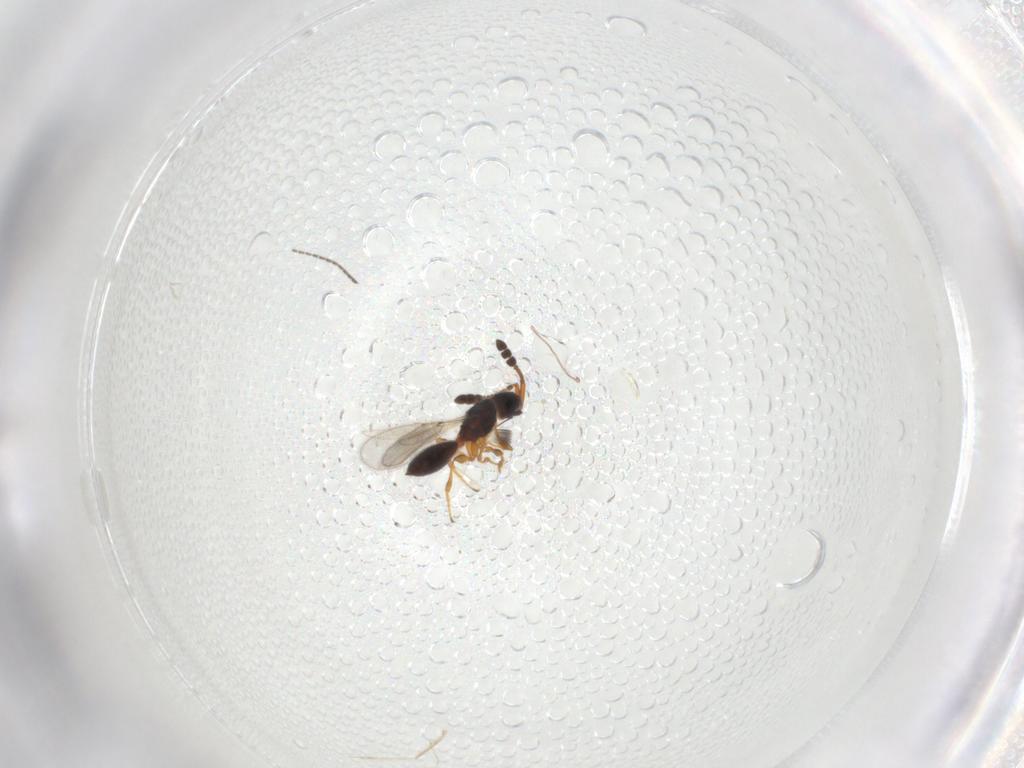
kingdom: Animalia
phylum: Arthropoda
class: Insecta
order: Hymenoptera
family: Diapriidae
